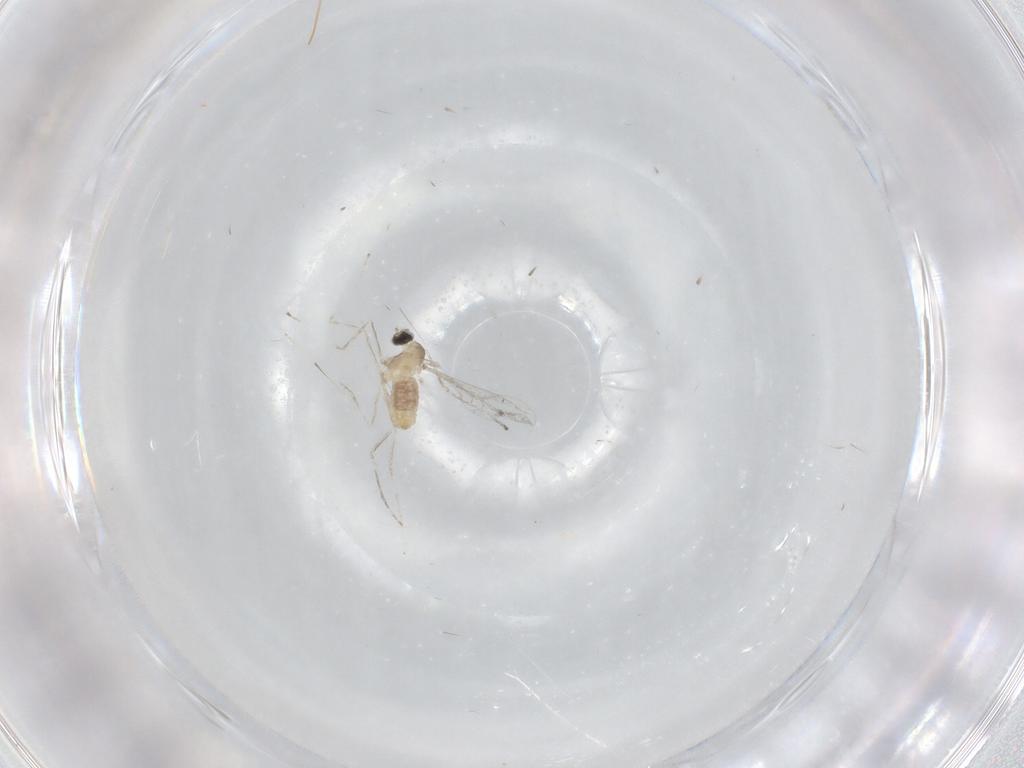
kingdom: Animalia
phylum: Arthropoda
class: Insecta
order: Diptera
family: Cecidomyiidae
